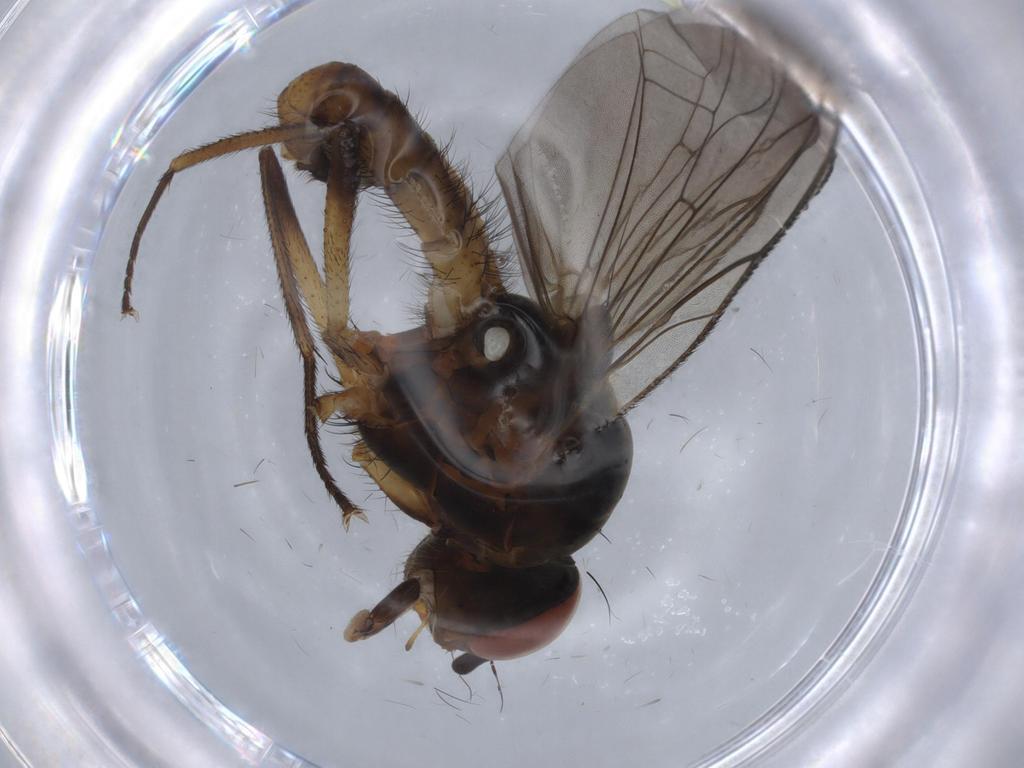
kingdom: Animalia
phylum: Arthropoda
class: Insecta
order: Diptera
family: Anthomyiidae
